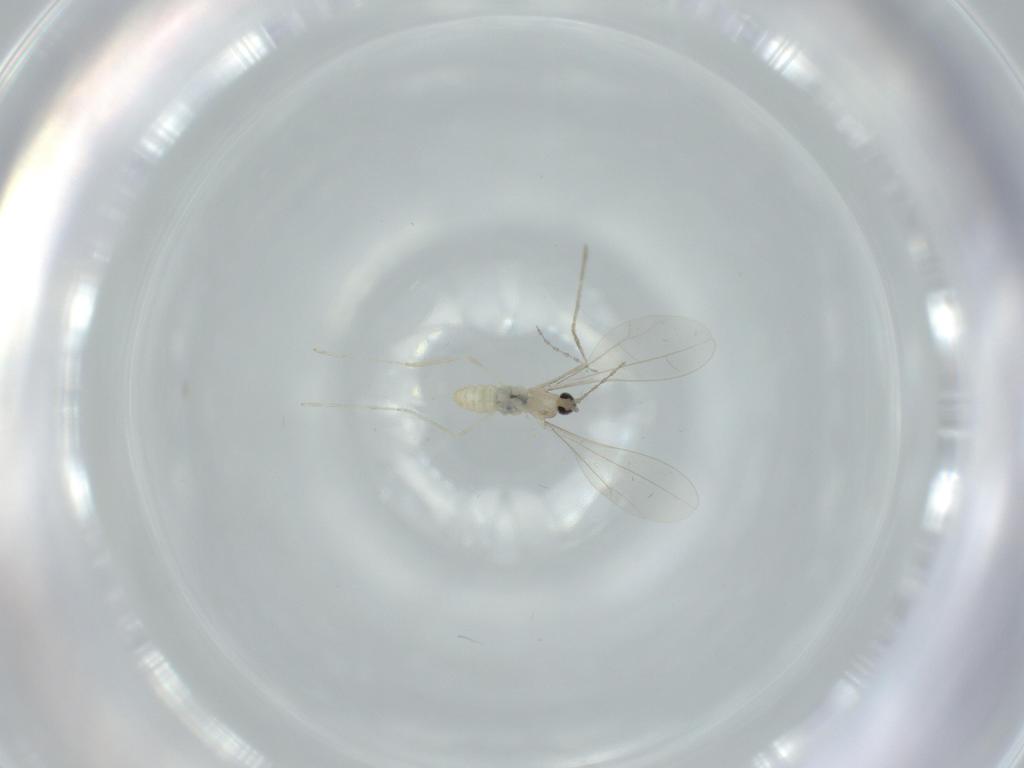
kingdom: Animalia
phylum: Arthropoda
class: Insecta
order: Diptera
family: Cecidomyiidae
